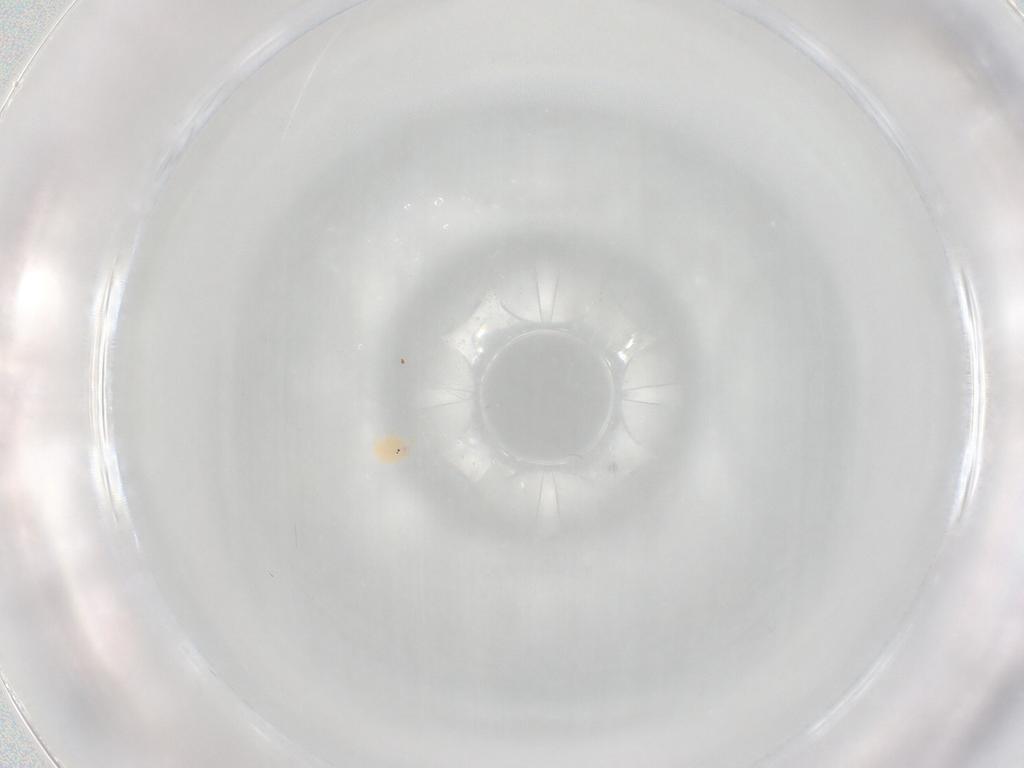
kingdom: Animalia
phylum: Arthropoda
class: Arachnida
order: Trombidiformes
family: Hydryphantidae
